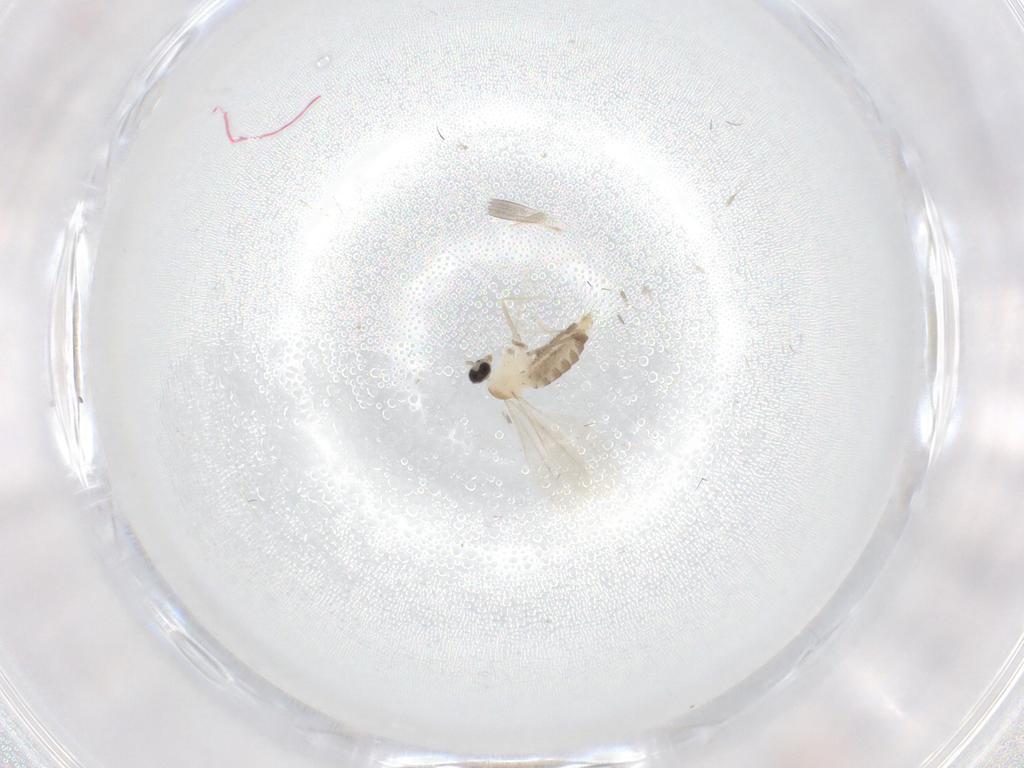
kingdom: Animalia
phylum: Arthropoda
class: Insecta
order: Diptera
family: Cecidomyiidae
